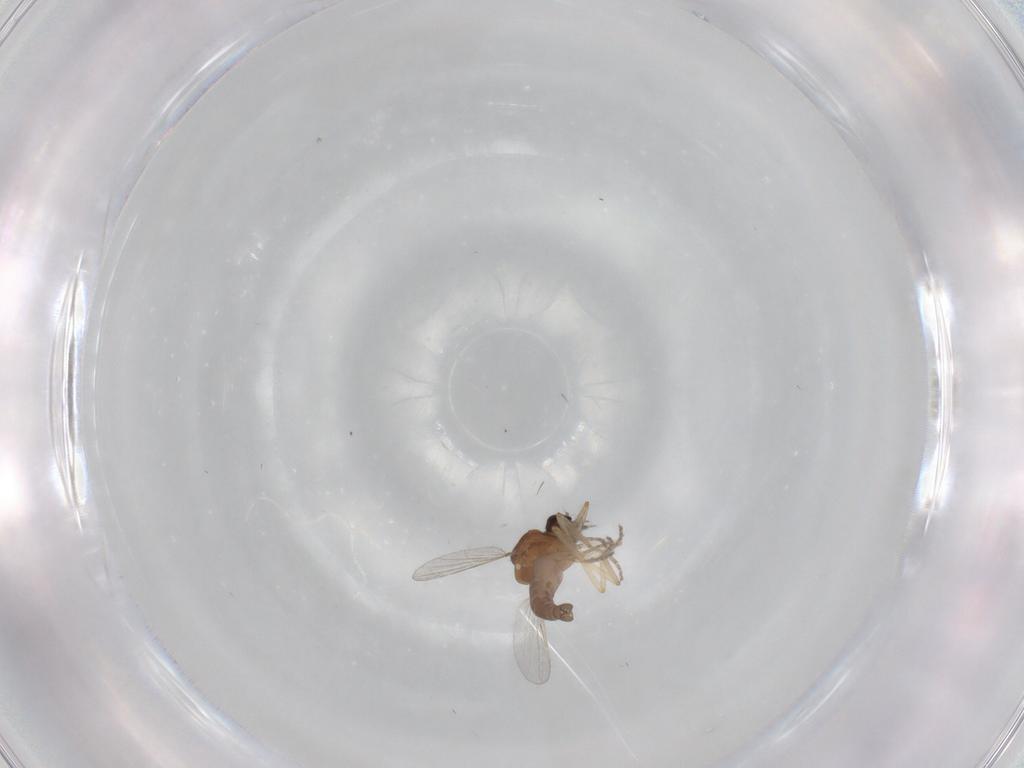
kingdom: Animalia
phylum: Arthropoda
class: Insecta
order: Diptera
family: Ceratopogonidae
